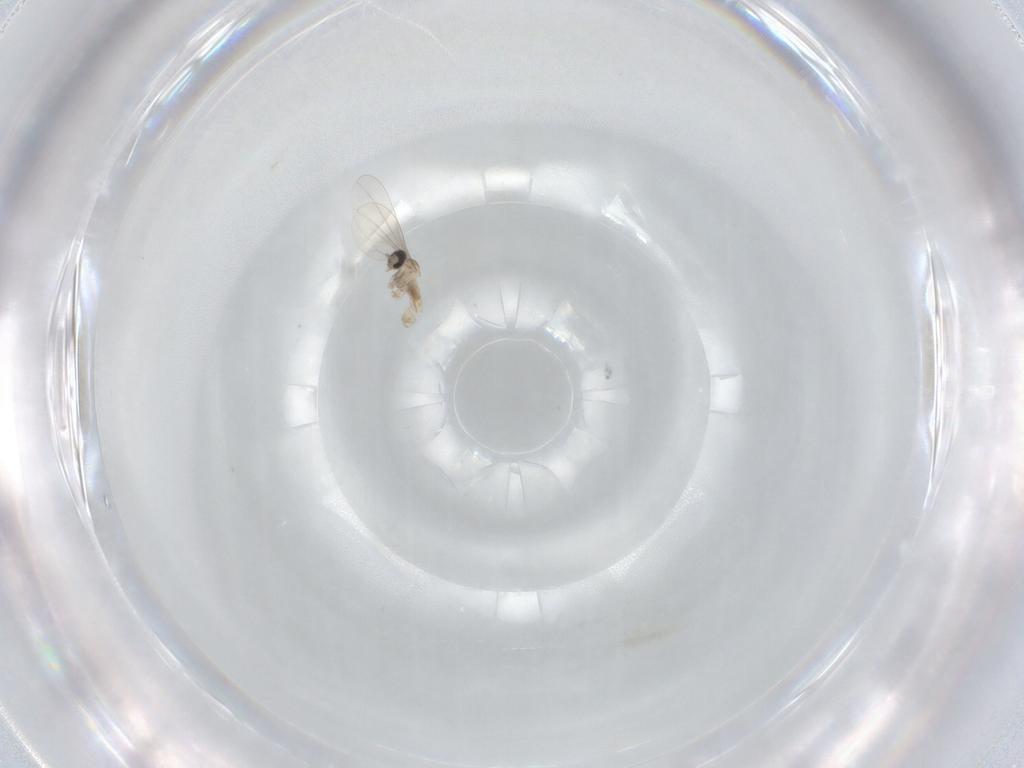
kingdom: Animalia
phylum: Arthropoda
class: Insecta
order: Diptera
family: Cecidomyiidae
